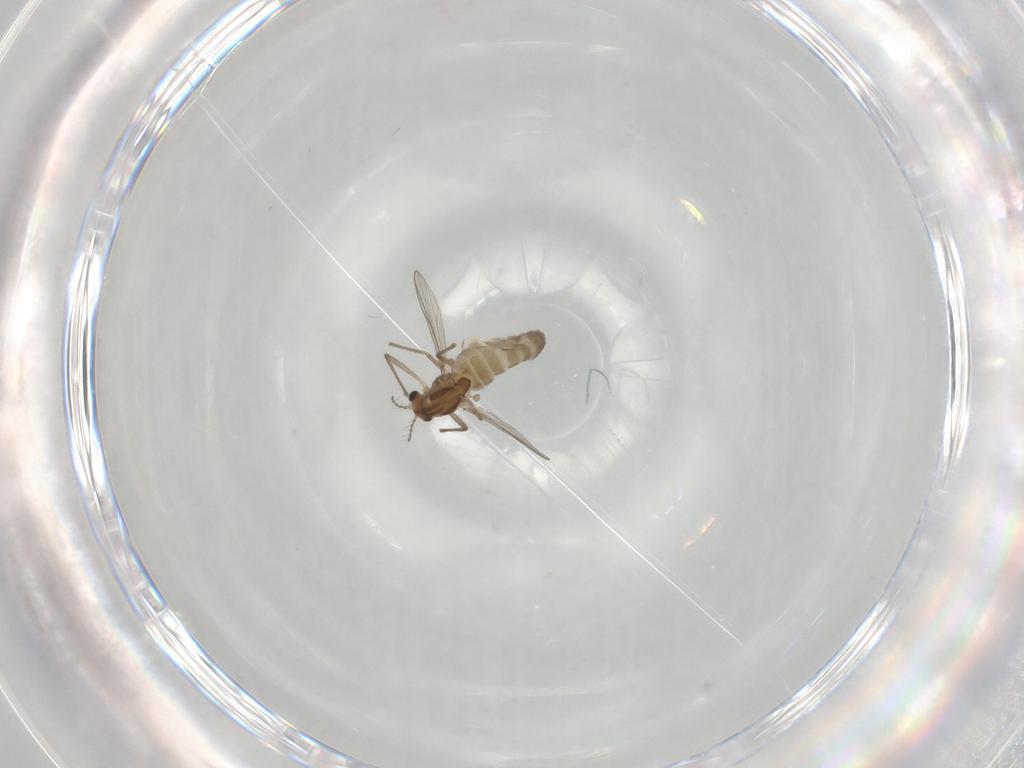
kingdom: Animalia
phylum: Arthropoda
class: Insecta
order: Diptera
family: Chironomidae
